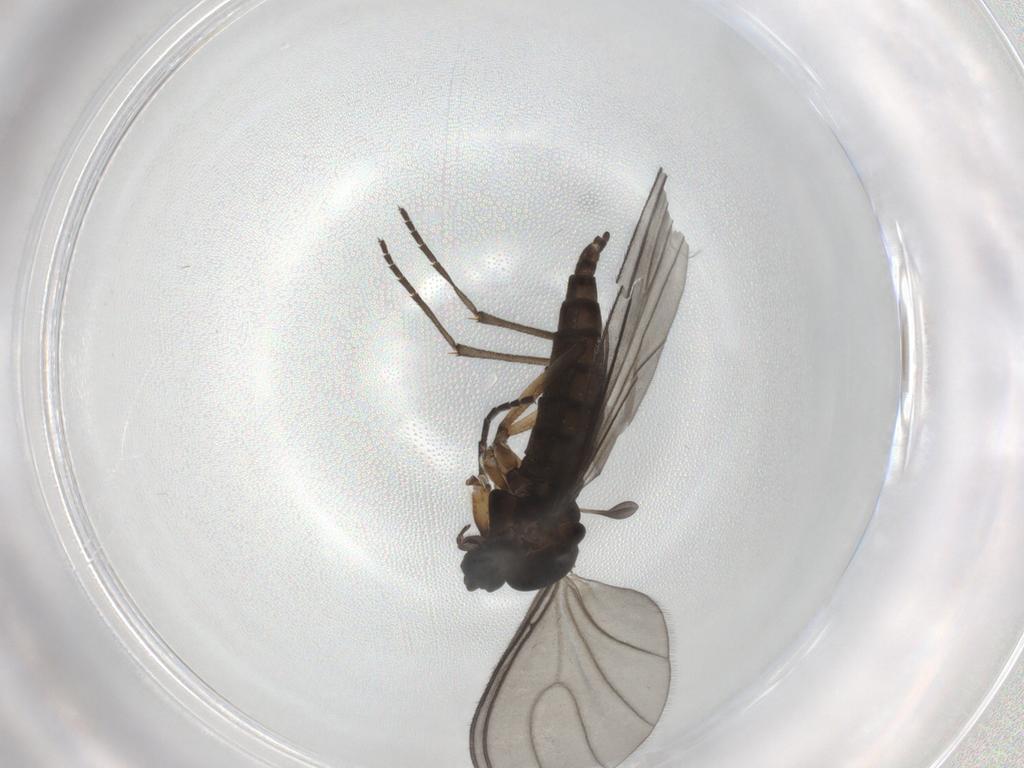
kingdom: Animalia
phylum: Arthropoda
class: Insecta
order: Diptera
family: Sciaridae
